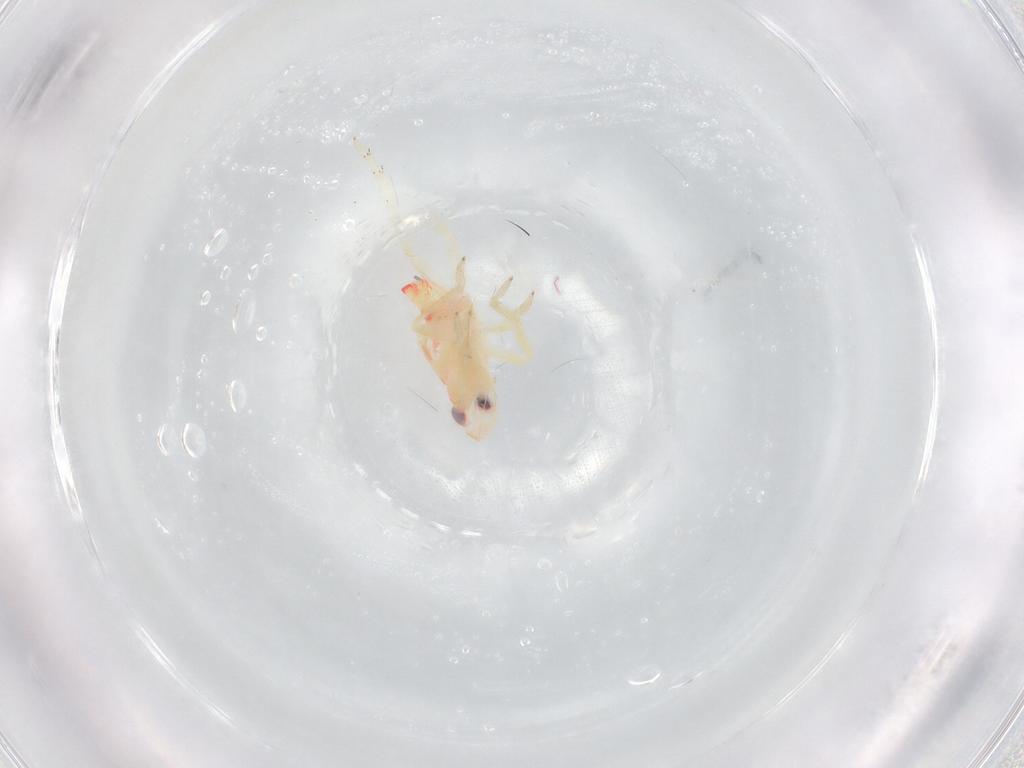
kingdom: Animalia
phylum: Arthropoda
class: Insecta
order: Hemiptera
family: Tropiduchidae
